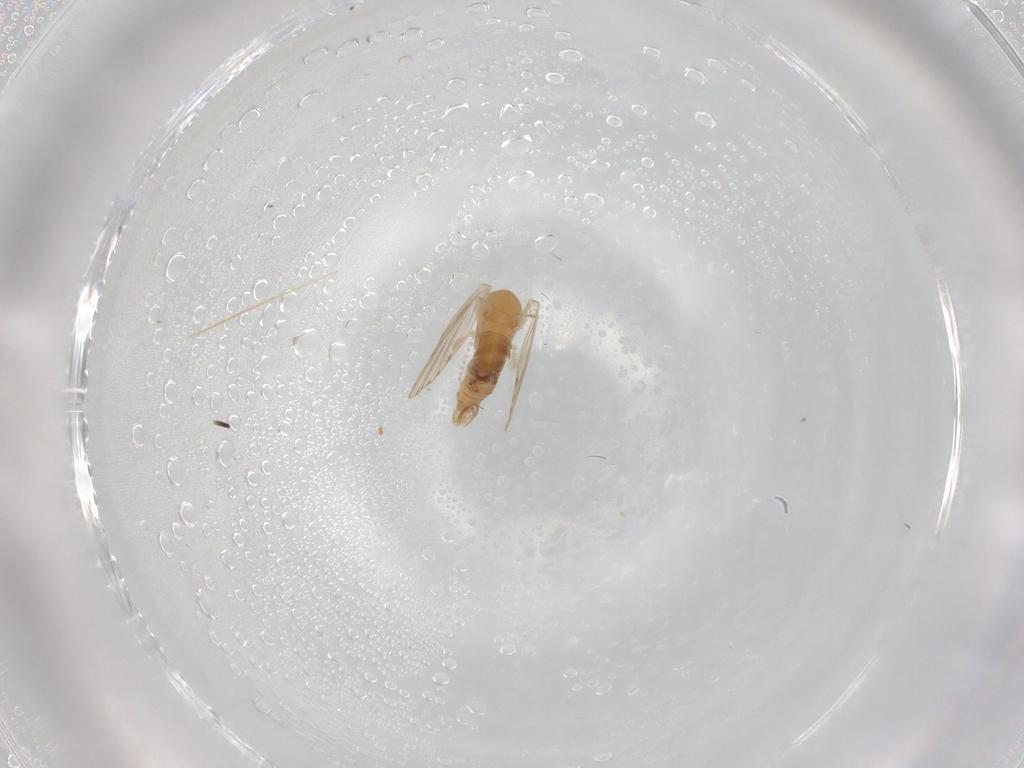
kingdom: Animalia
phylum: Arthropoda
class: Insecta
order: Diptera
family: Psychodidae
